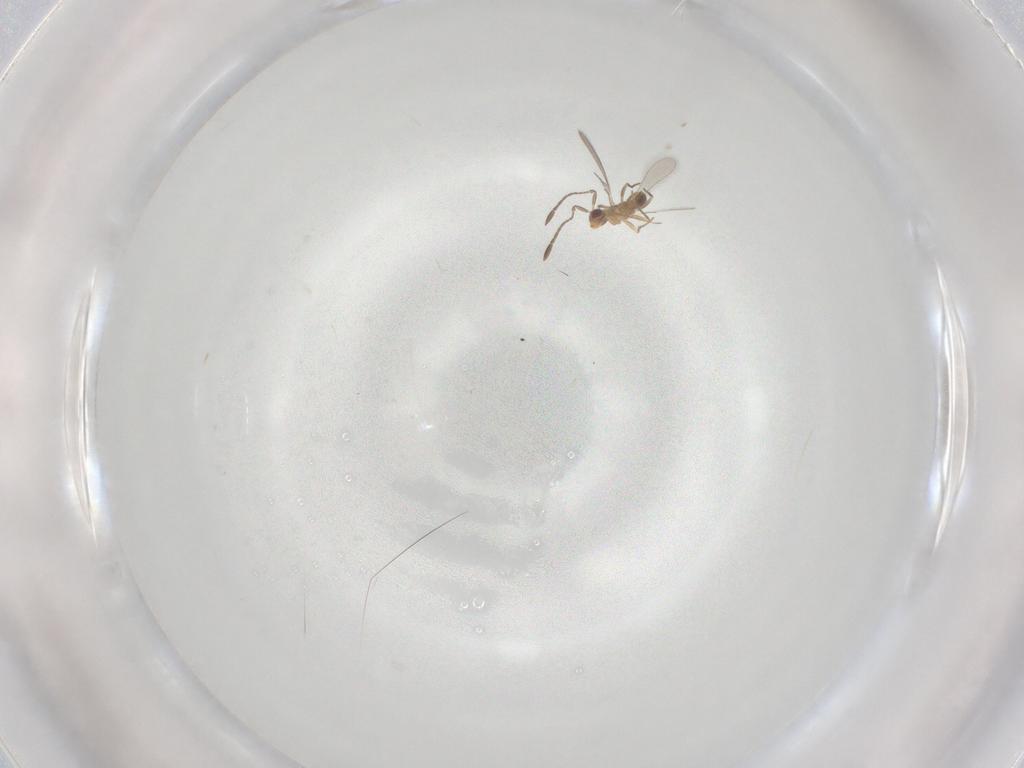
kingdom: Animalia
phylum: Arthropoda
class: Insecta
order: Hymenoptera
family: Mymaridae
